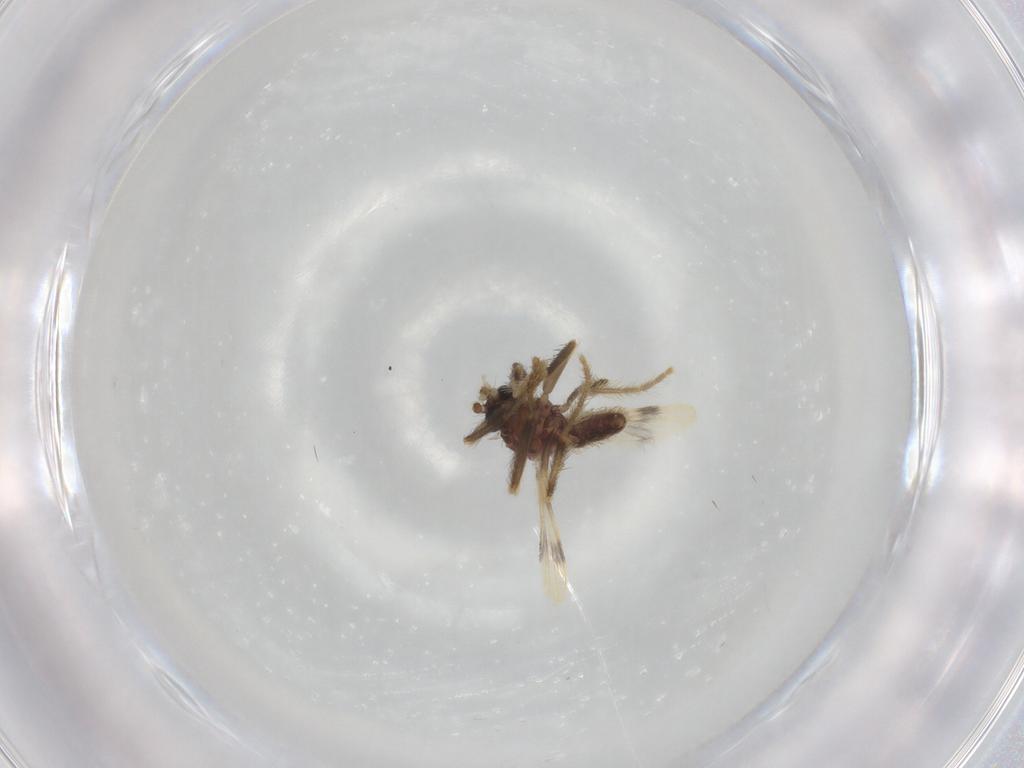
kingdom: Animalia
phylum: Arthropoda
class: Insecta
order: Diptera
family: Corethrellidae
